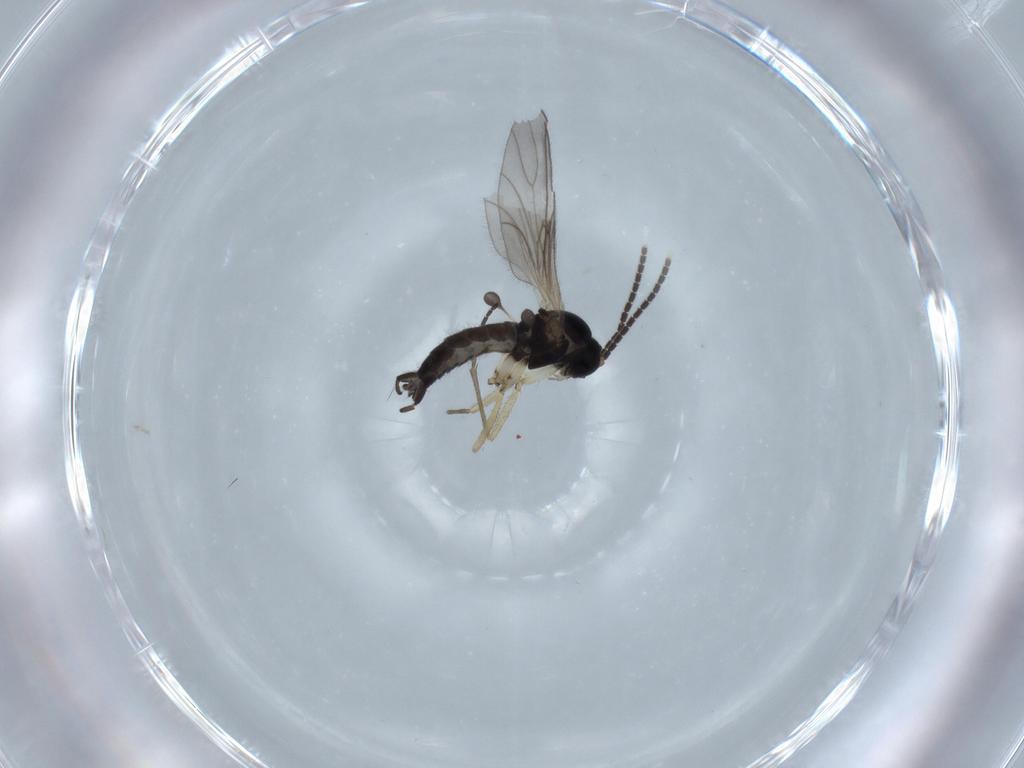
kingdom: Animalia
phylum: Arthropoda
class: Insecta
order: Diptera
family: Sciaridae
